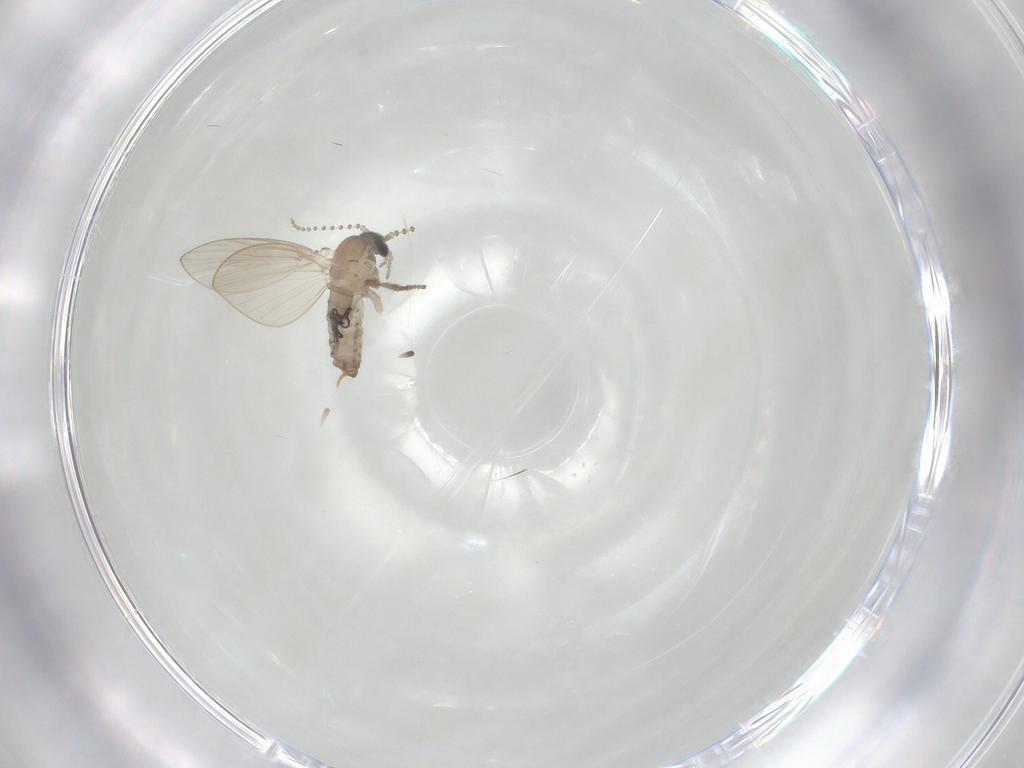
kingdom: Animalia
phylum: Arthropoda
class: Insecta
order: Diptera
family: Psychodidae
